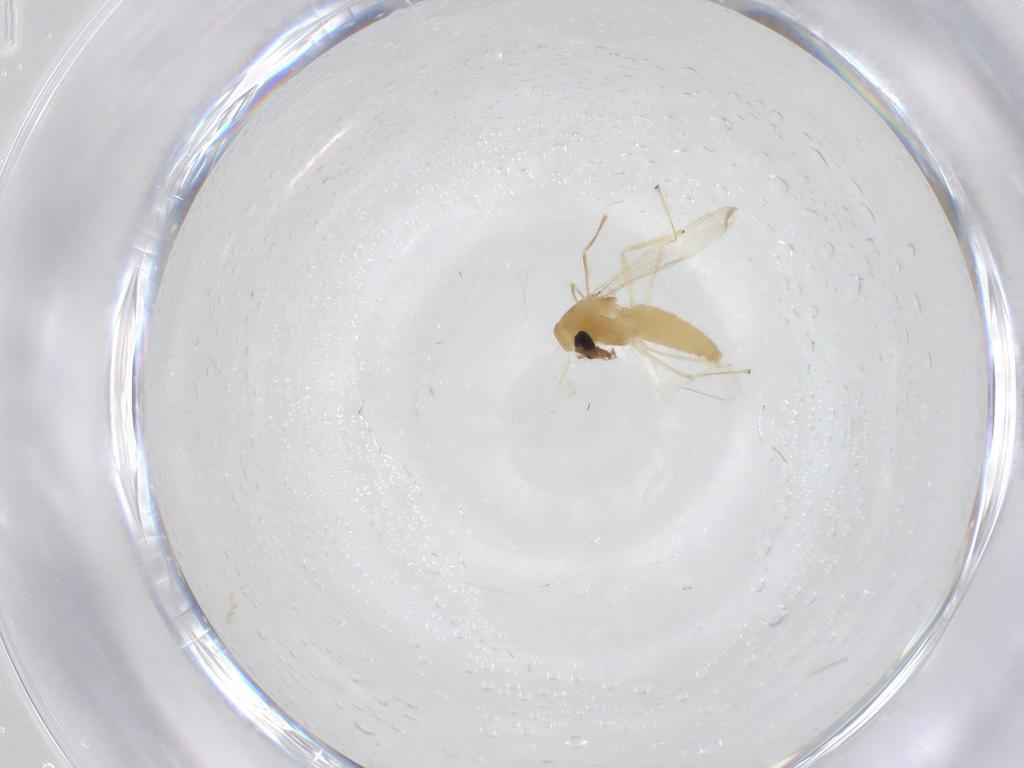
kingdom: Animalia
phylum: Arthropoda
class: Insecta
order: Diptera
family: Chironomidae
